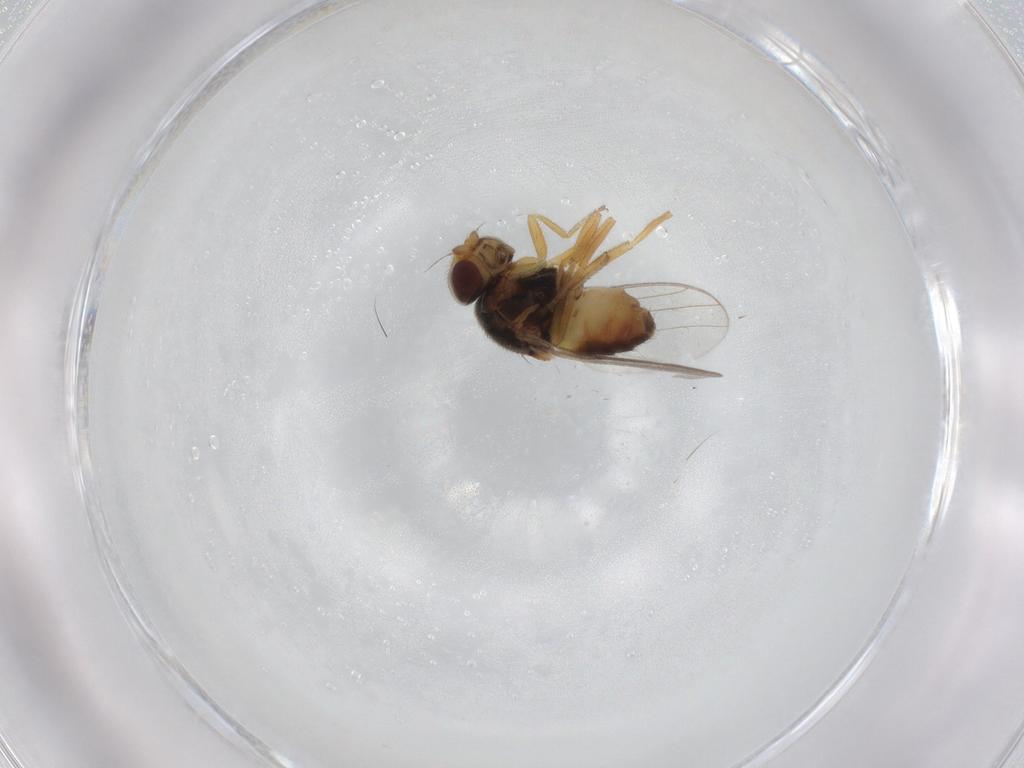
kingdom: Animalia
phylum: Arthropoda
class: Insecta
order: Diptera
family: Chloropidae
